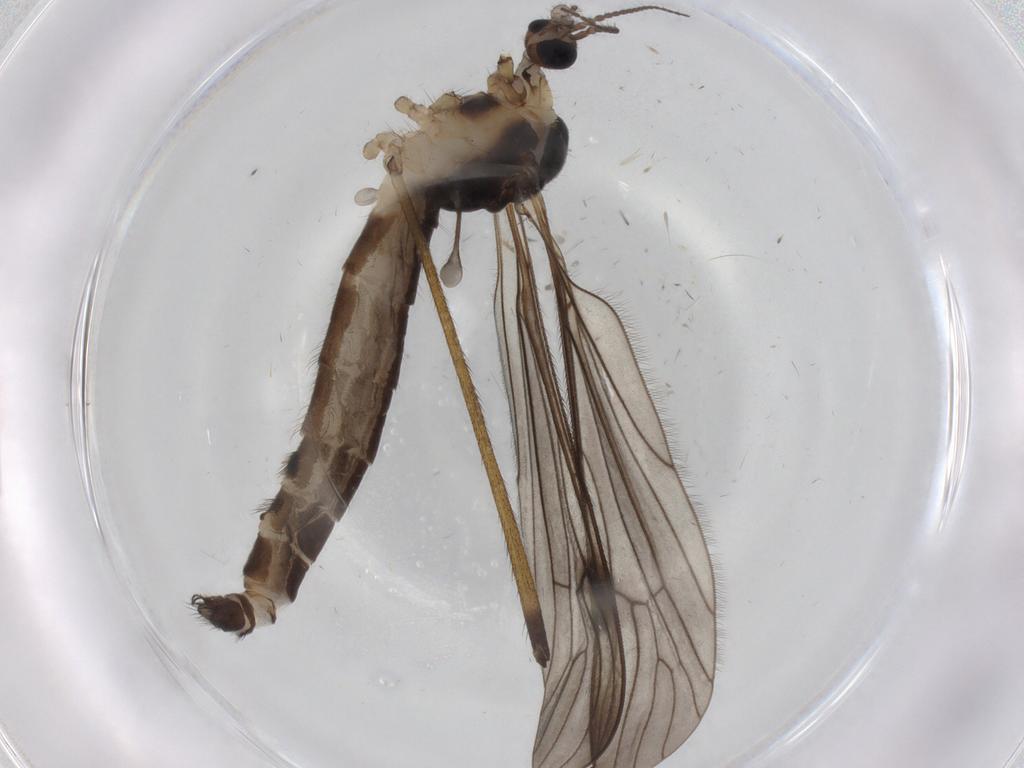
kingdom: Animalia
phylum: Arthropoda
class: Insecta
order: Diptera
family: Limoniidae
